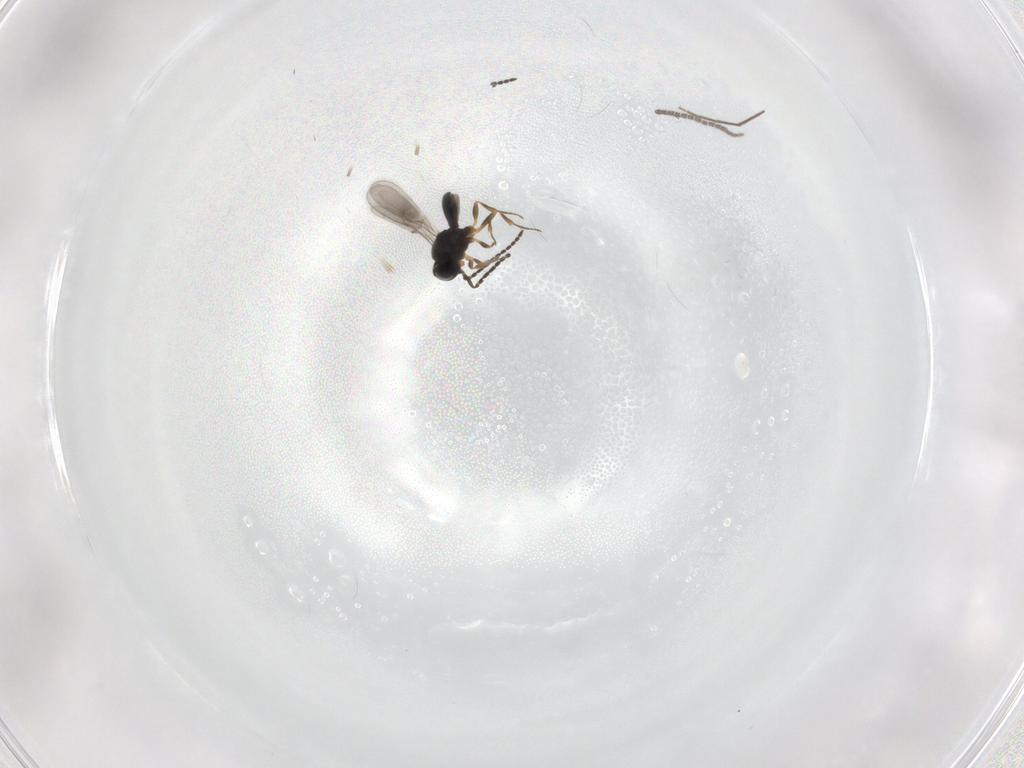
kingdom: Animalia
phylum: Arthropoda
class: Insecta
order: Hymenoptera
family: Scelionidae
